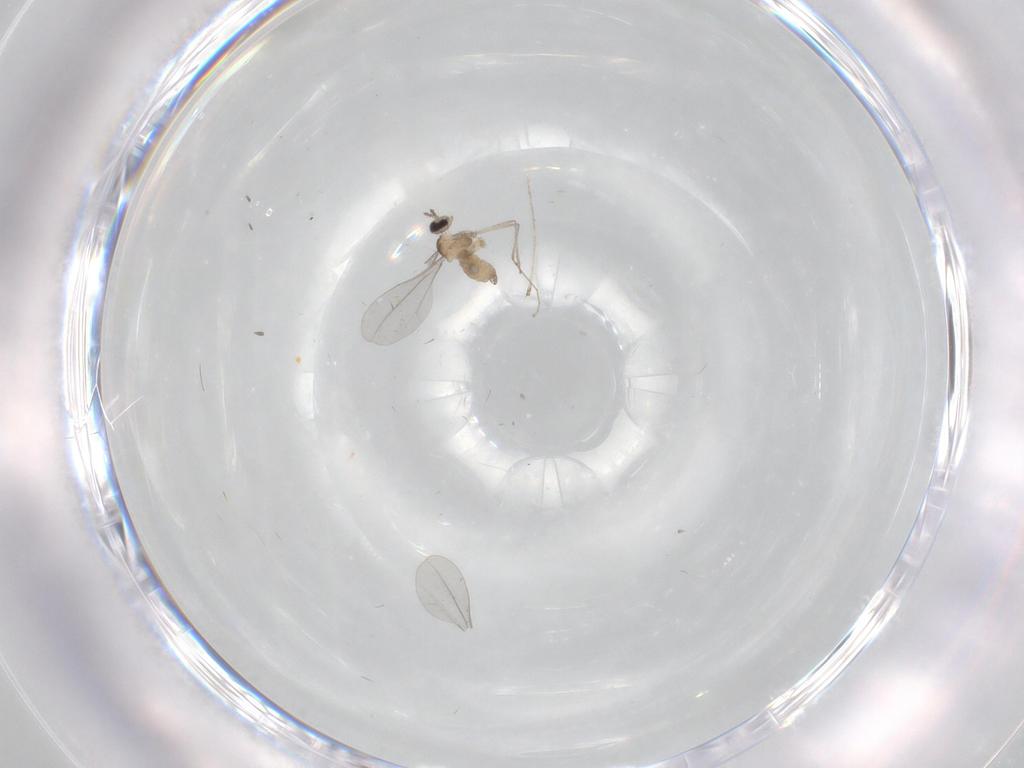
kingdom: Animalia
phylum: Arthropoda
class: Insecta
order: Diptera
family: Cecidomyiidae
